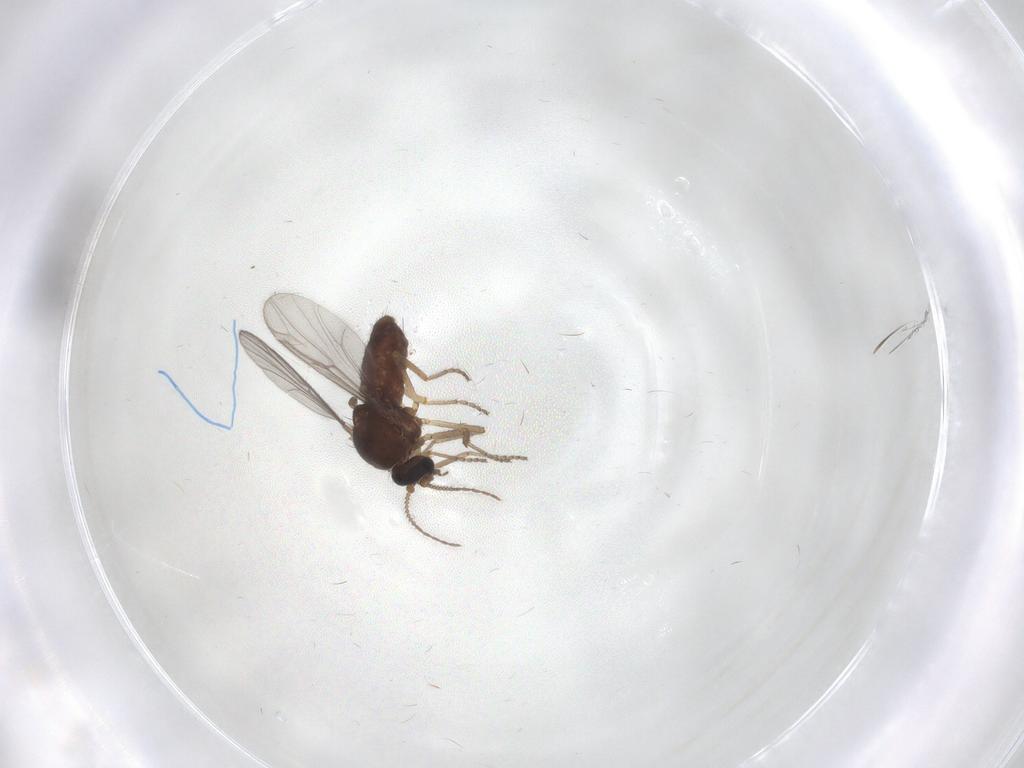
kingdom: Animalia
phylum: Arthropoda
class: Insecta
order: Diptera
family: Ceratopogonidae
